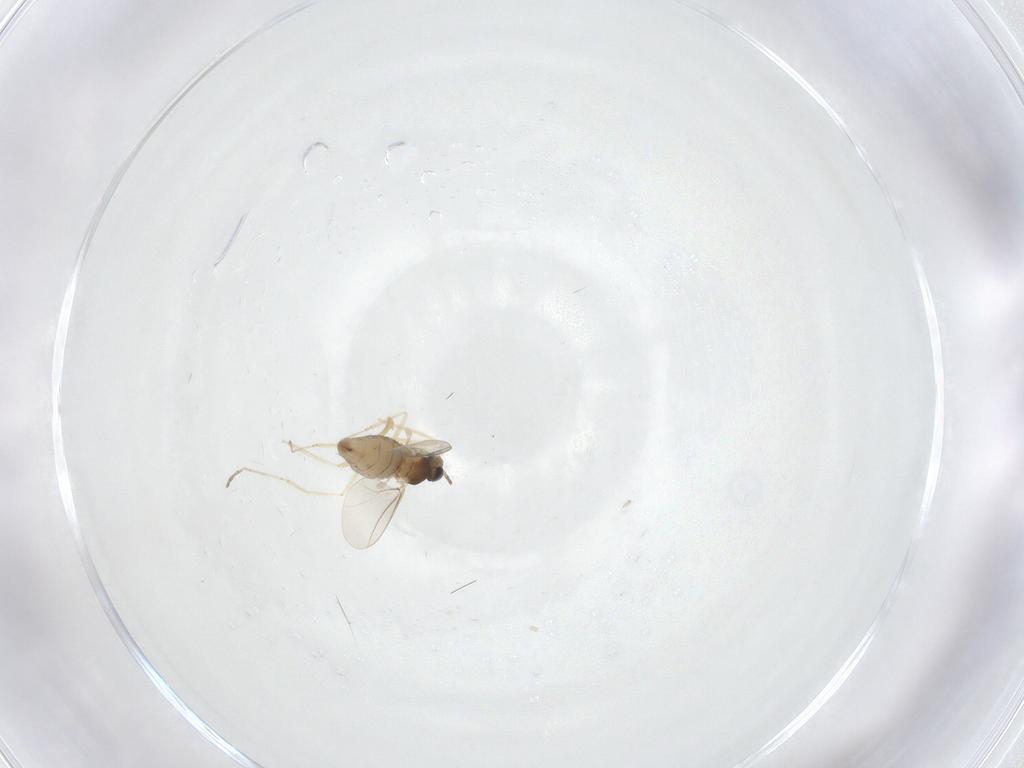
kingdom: Animalia
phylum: Arthropoda
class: Insecta
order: Diptera
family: Cecidomyiidae
